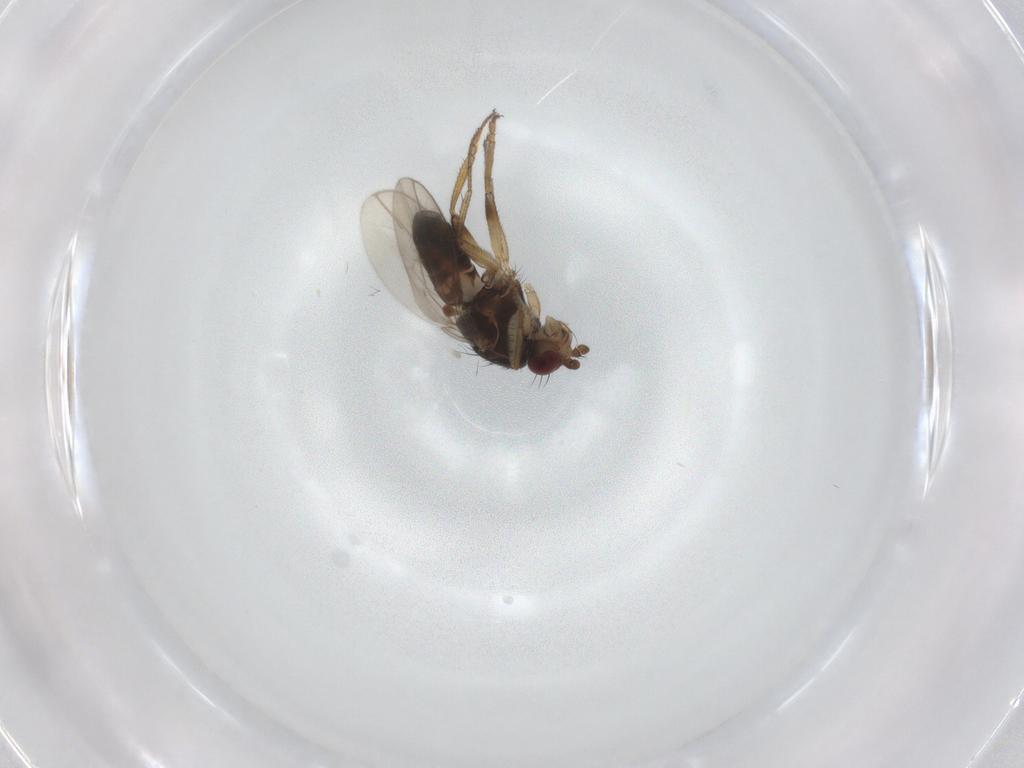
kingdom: Animalia
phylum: Arthropoda
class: Insecta
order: Diptera
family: Sphaeroceridae
